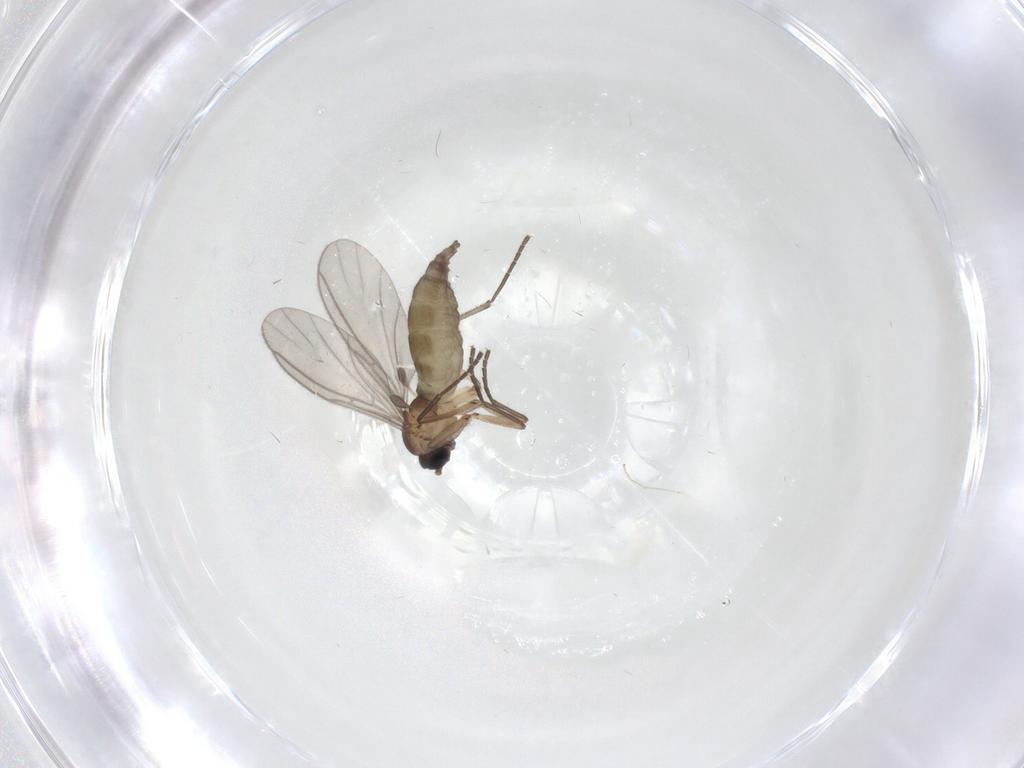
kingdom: Animalia
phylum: Arthropoda
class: Insecta
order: Diptera
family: Sciaridae
